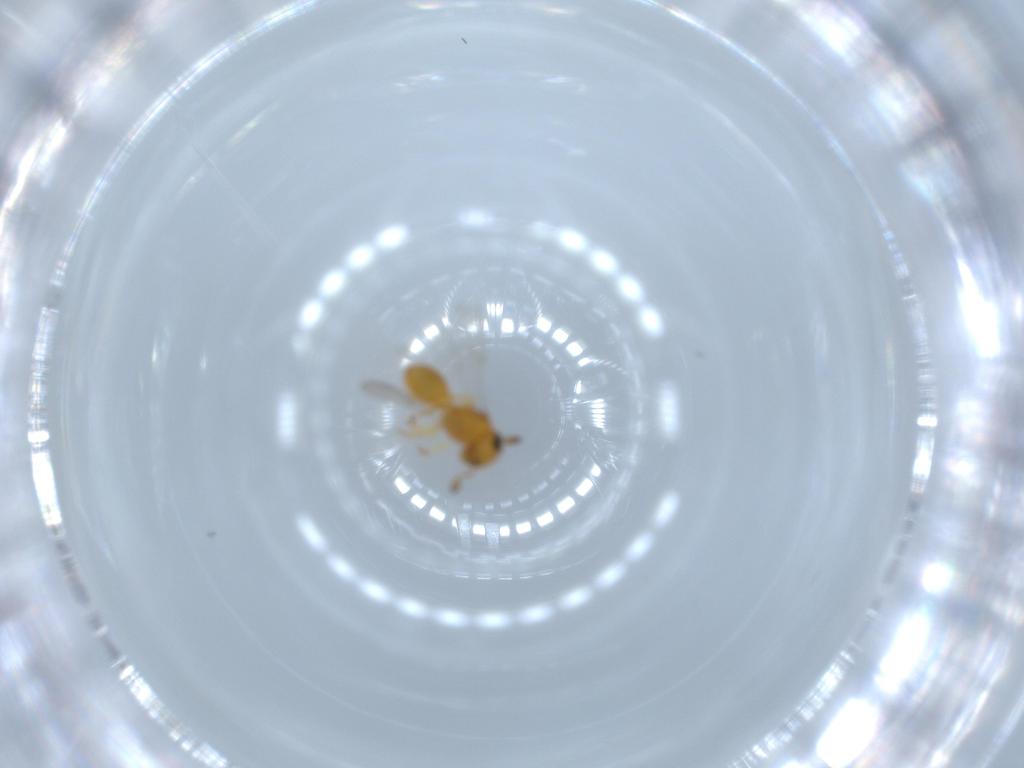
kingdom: Animalia
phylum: Arthropoda
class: Insecta
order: Hymenoptera
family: Scelionidae
